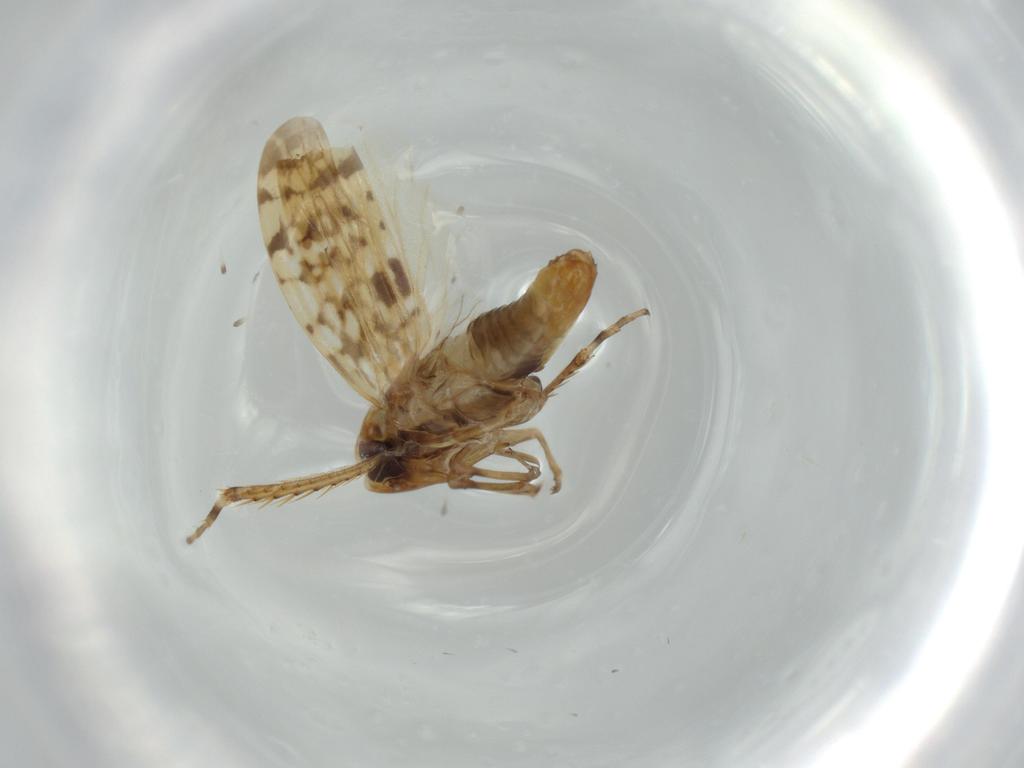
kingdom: Animalia
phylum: Arthropoda
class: Insecta
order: Hemiptera
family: Cicadellidae
